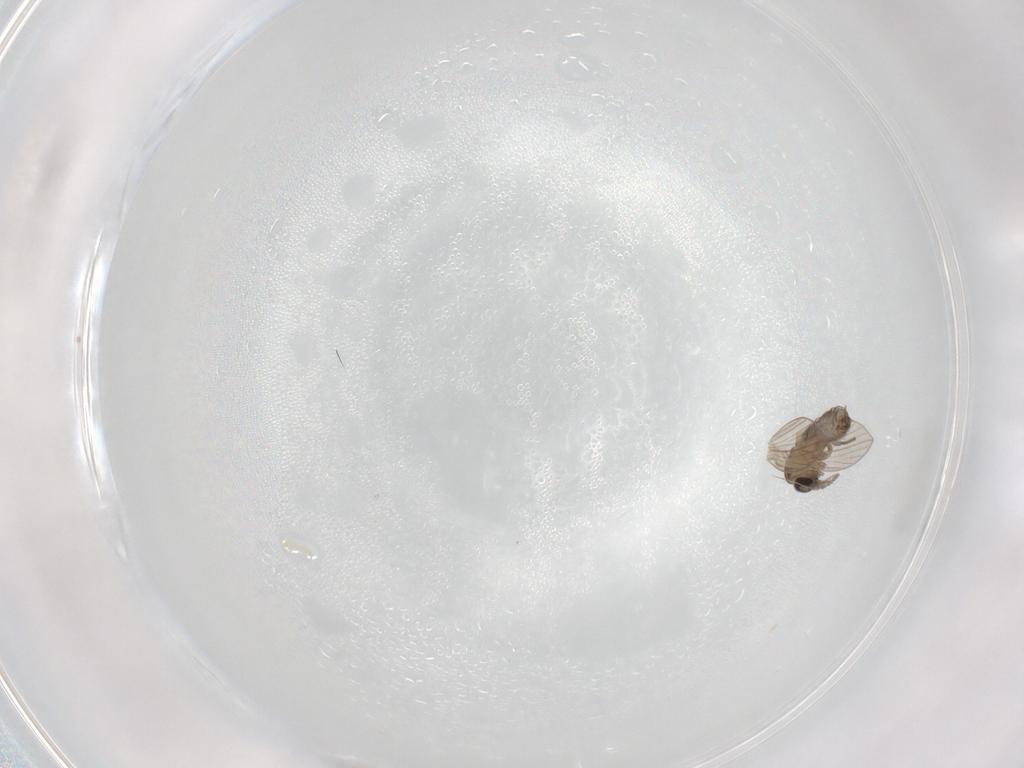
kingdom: Animalia
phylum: Arthropoda
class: Insecta
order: Diptera
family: Psychodidae
